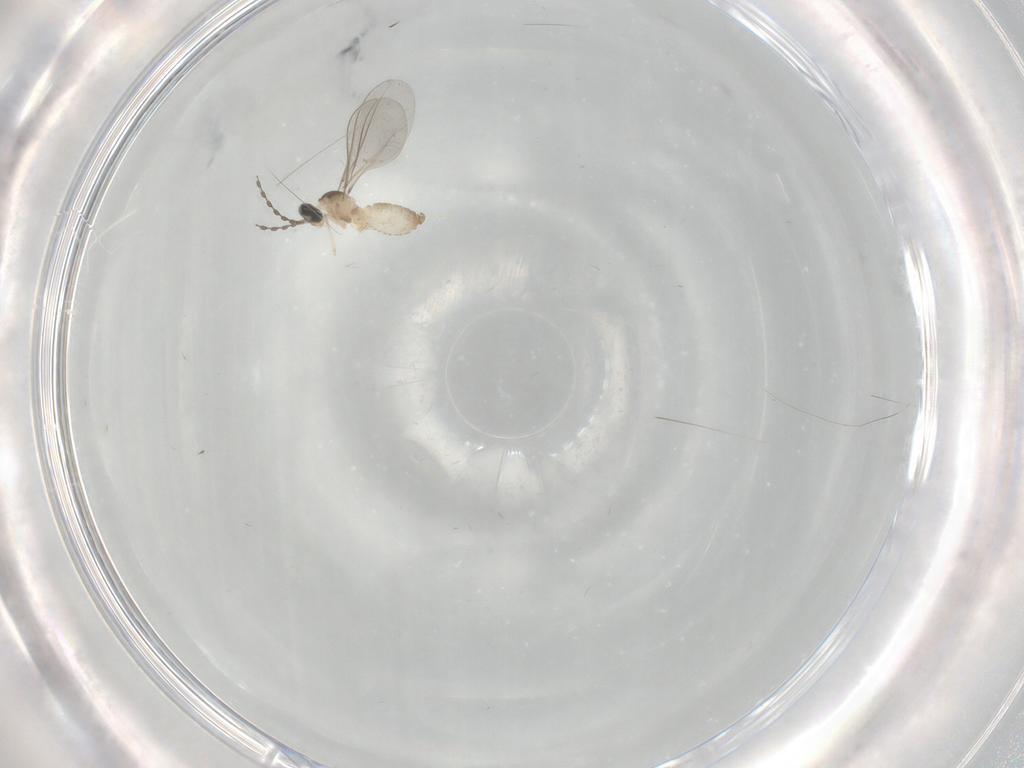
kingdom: Animalia
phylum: Arthropoda
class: Insecta
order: Diptera
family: Cecidomyiidae
